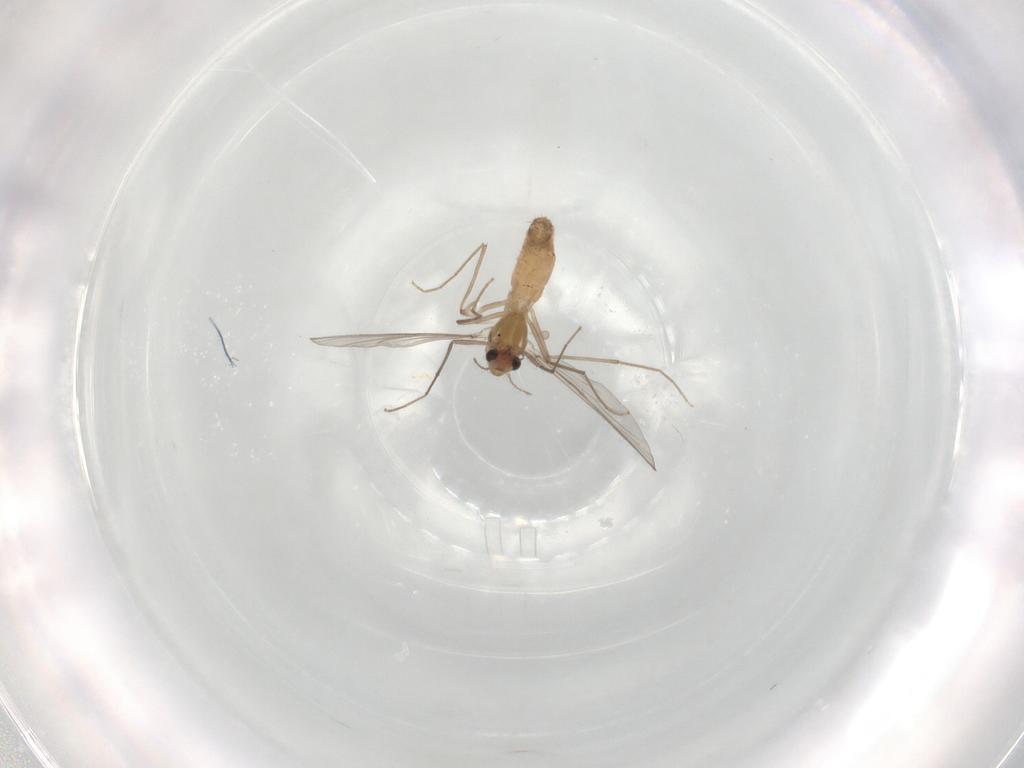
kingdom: Animalia
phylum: Arthropoda
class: Insecta
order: Diptera
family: Chironomidae
